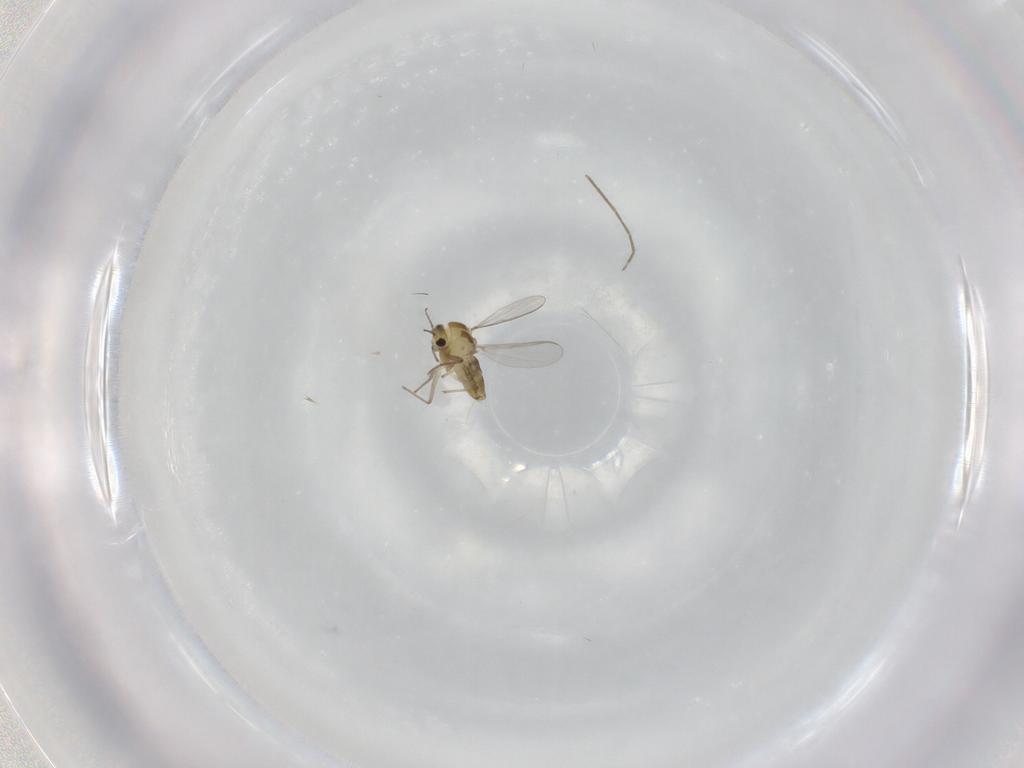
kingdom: Animalia
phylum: Arthropoda
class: Insecta
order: Diptera
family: Chironomidae
